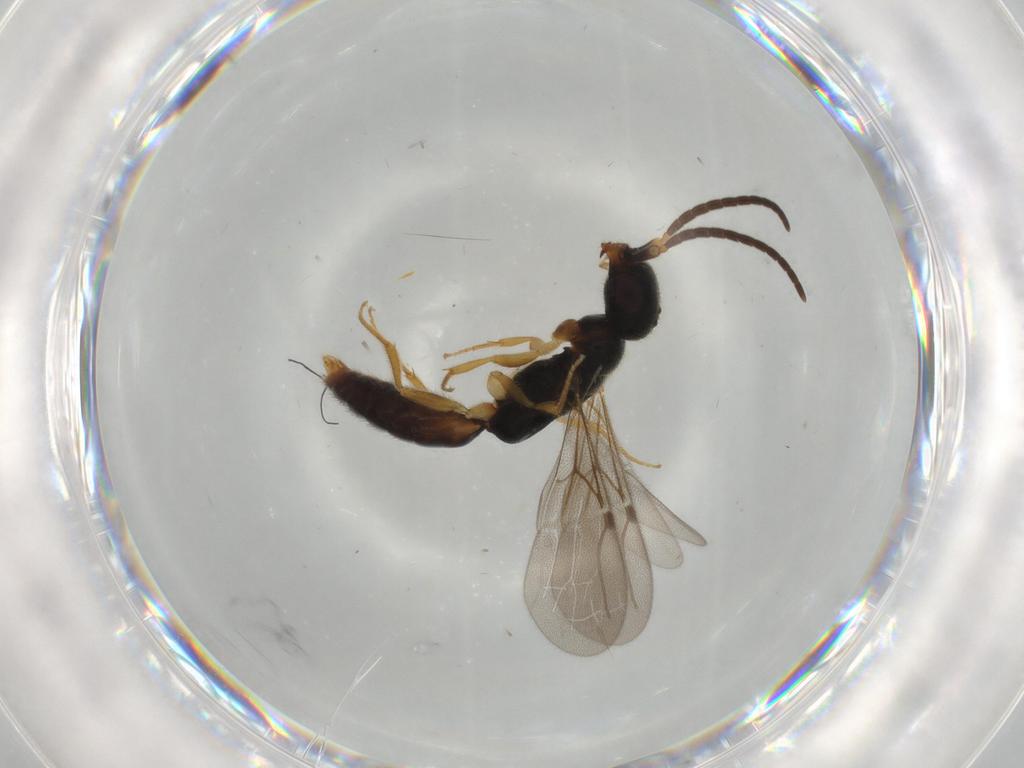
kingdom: Animalia
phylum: Arthropoda
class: Insecta
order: Hymenoptera
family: Bethylidae
